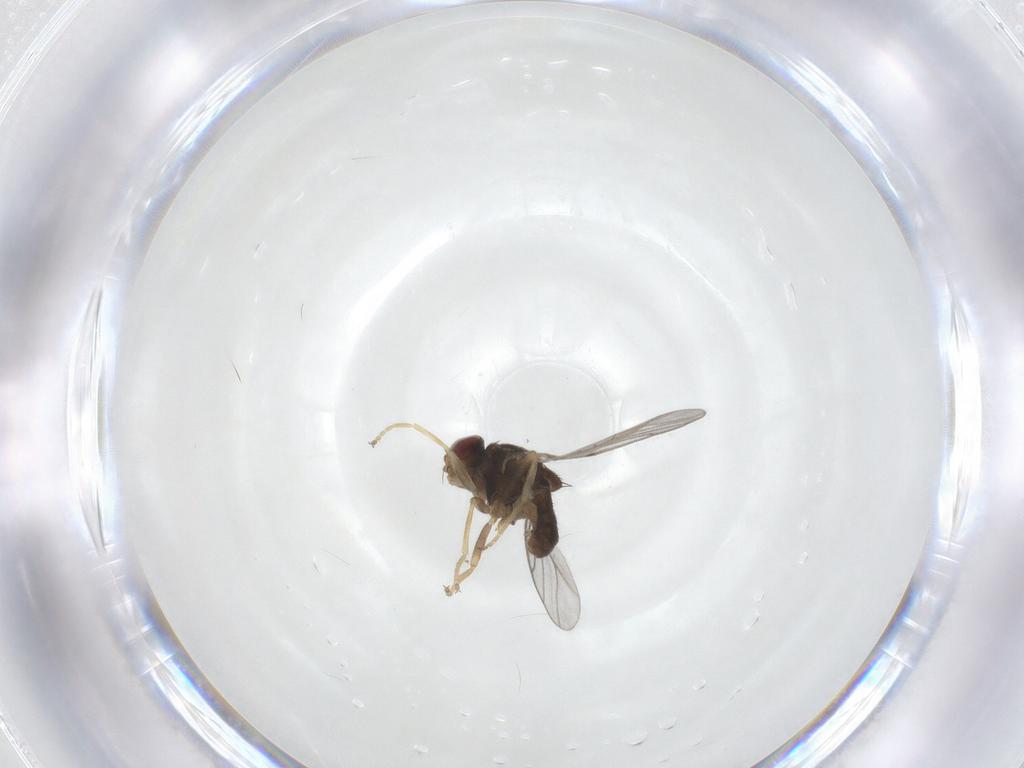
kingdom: Animalia
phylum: Arthropoda
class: Insecta
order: Diptera
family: Chloropidae
